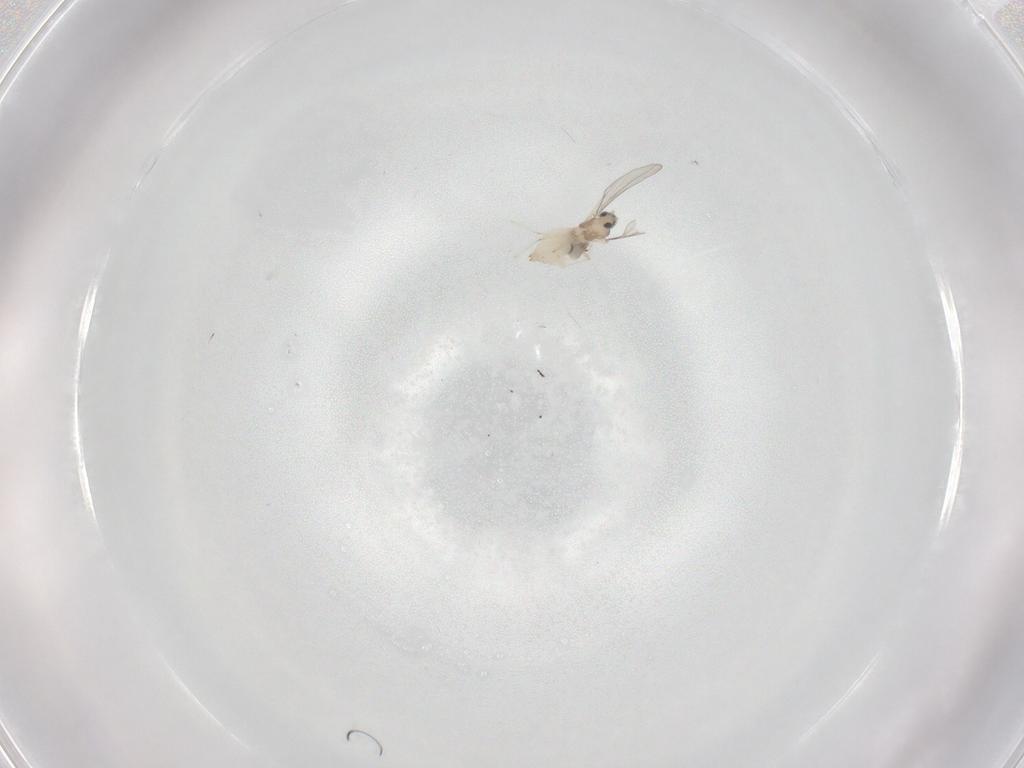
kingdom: Animalia
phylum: Arthropoda
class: Insecta
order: Diptera
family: Cecidomyiidae
